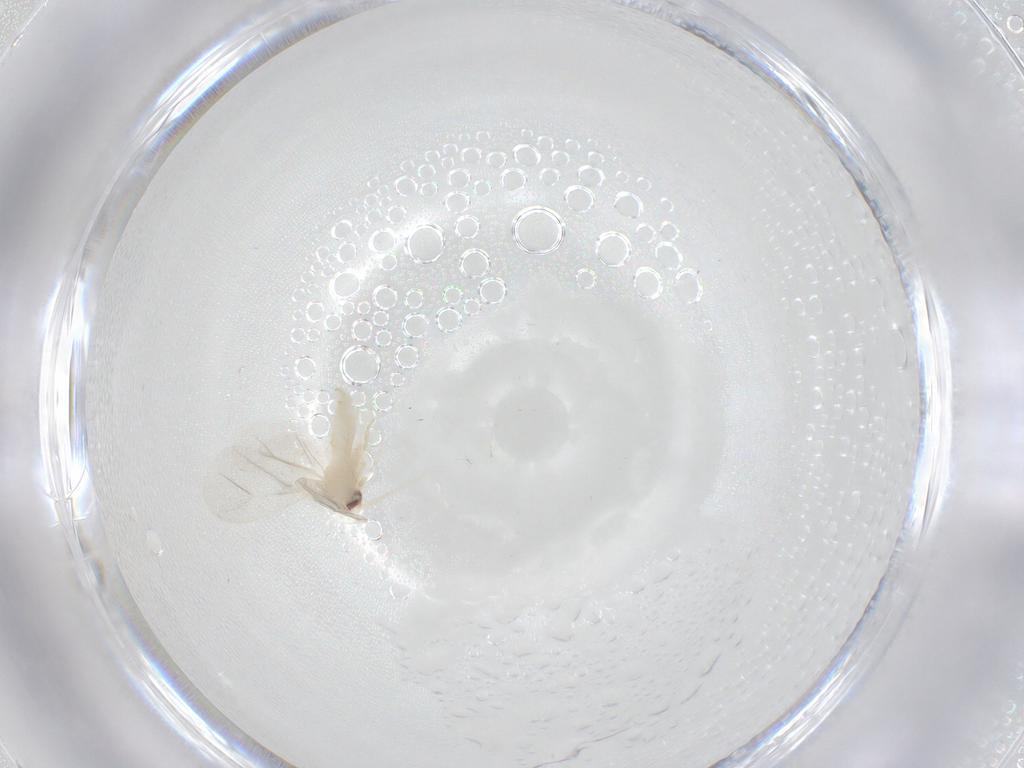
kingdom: Animalia
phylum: Arthropoda
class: Insecta
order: Hemiptera
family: Aleyrodidae
